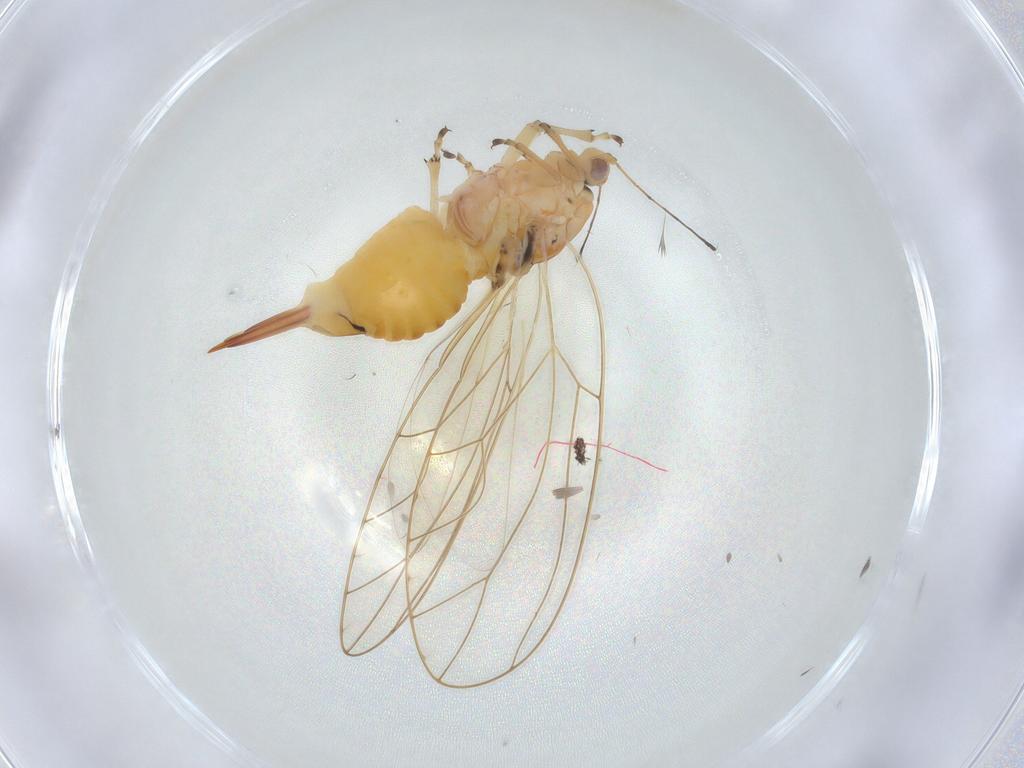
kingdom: Animalia
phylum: Arthropoda
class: Insecta
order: Hemiptera
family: Triozidae
